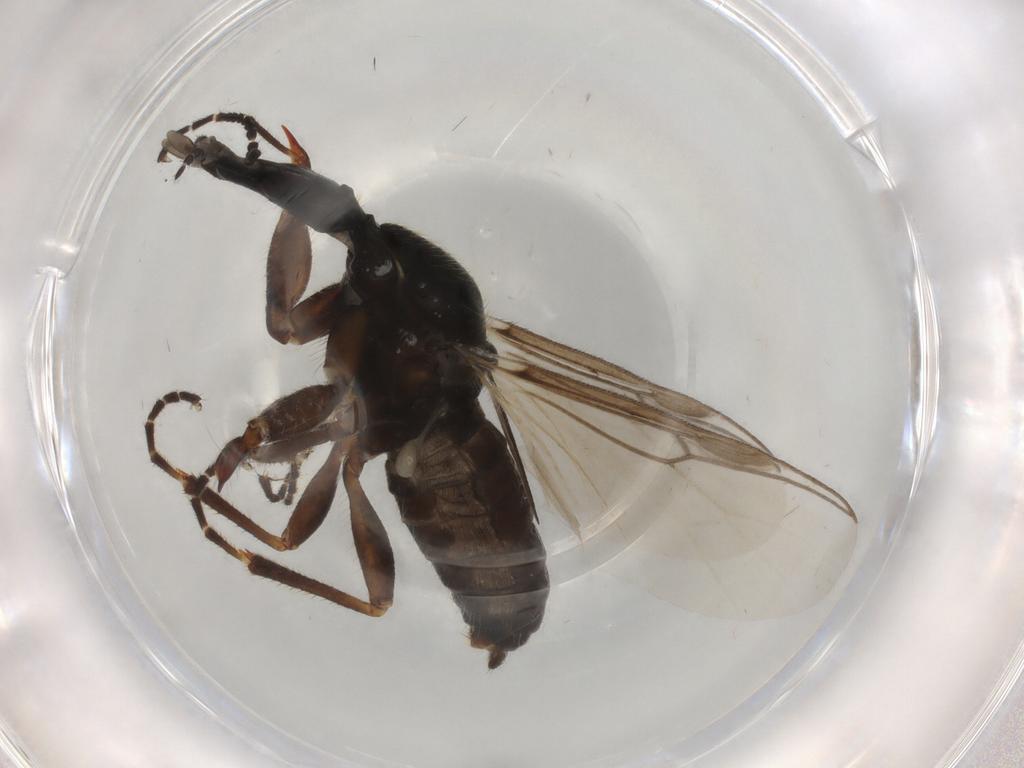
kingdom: Animalia
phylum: Arthropoda
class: Insecta
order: Diptera
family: Bibionidae
